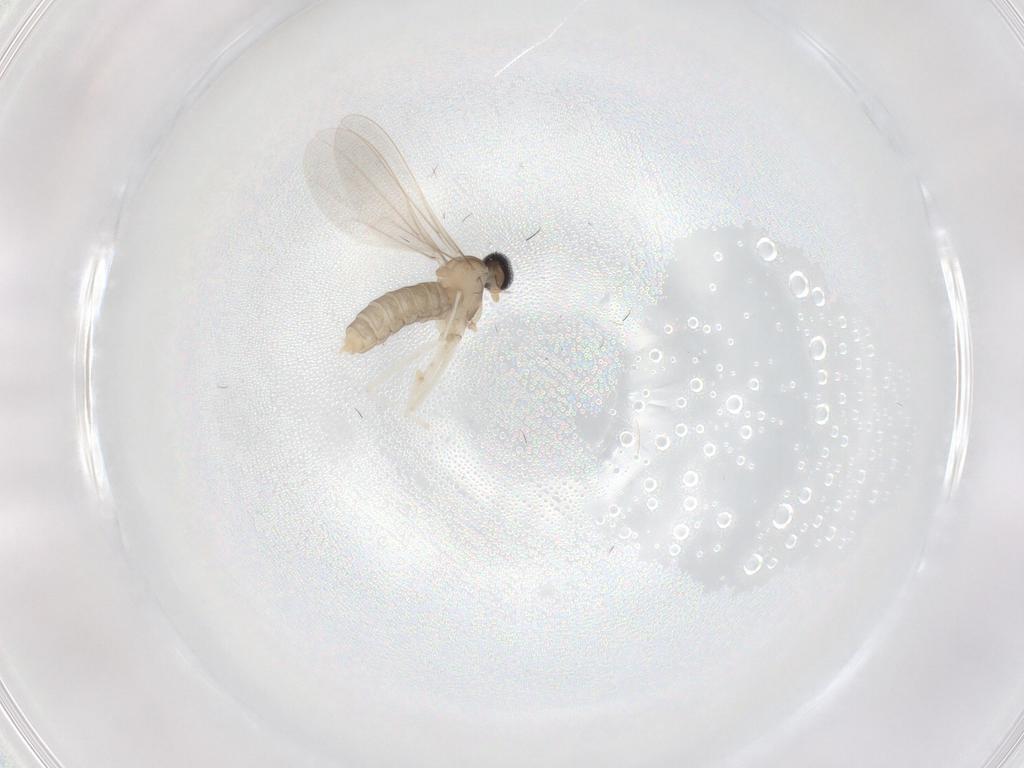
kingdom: Animalia
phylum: Arthropoda
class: Insecta
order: Diptera
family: Cecidomyiidae
